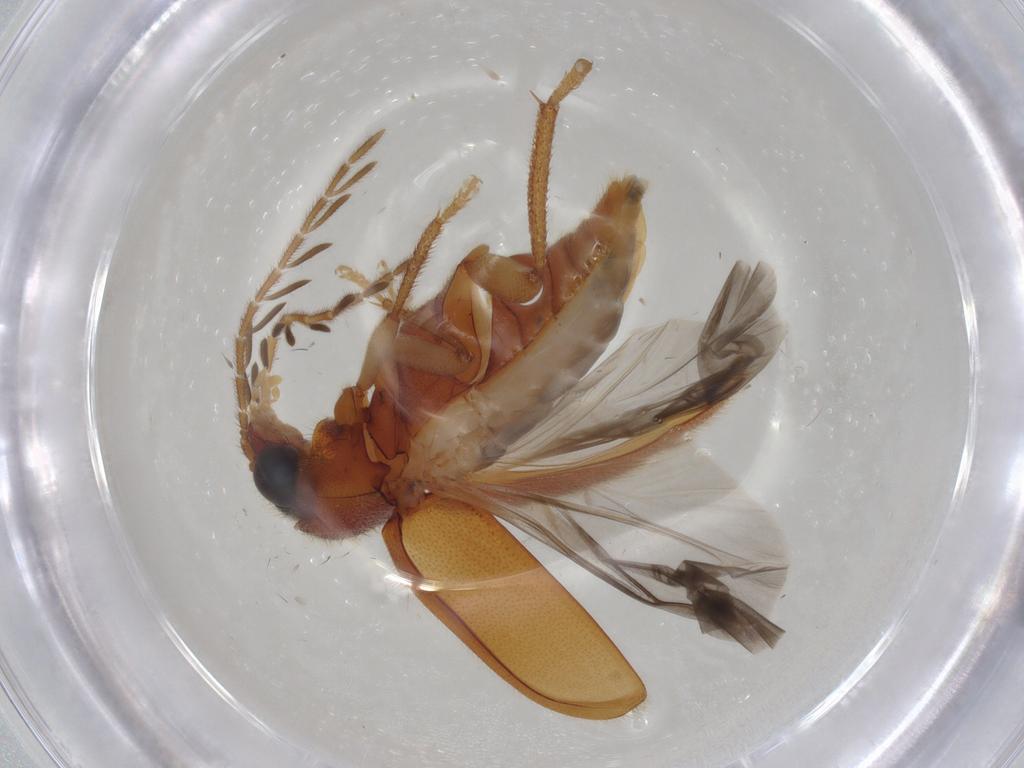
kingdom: Animalia
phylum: Arthropoda
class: Insecta
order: Coleoptera
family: Ptilodactylidae
